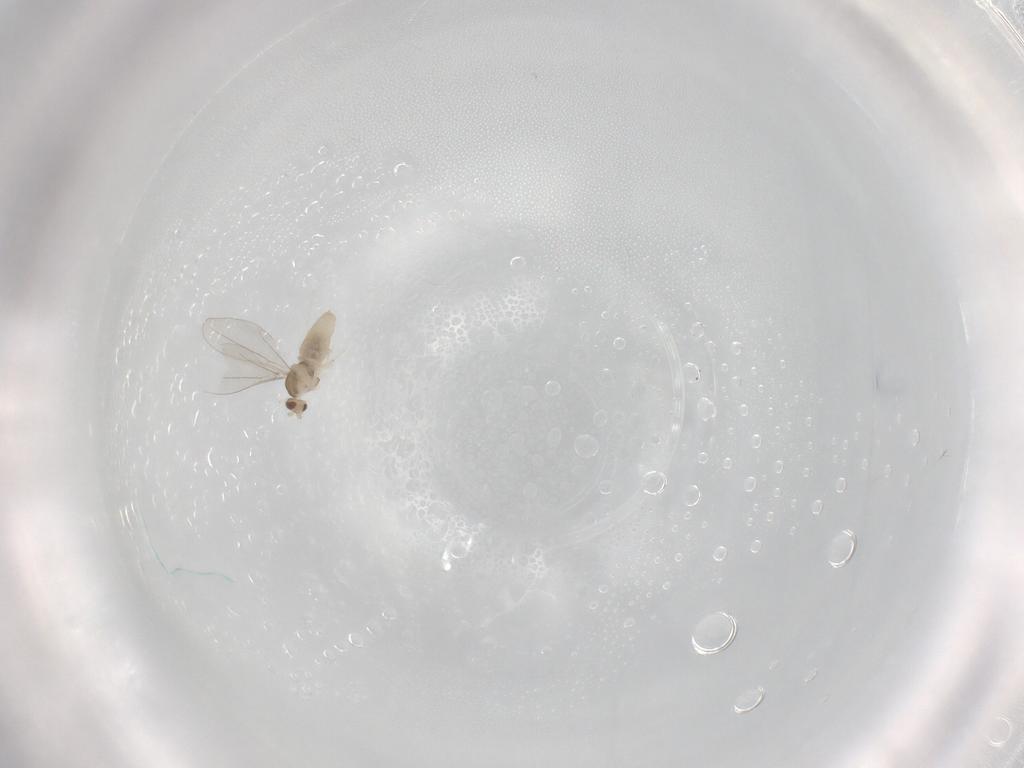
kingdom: Animalia
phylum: Arthropoda
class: Insecta
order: Diptera
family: Cecidomyiidae
